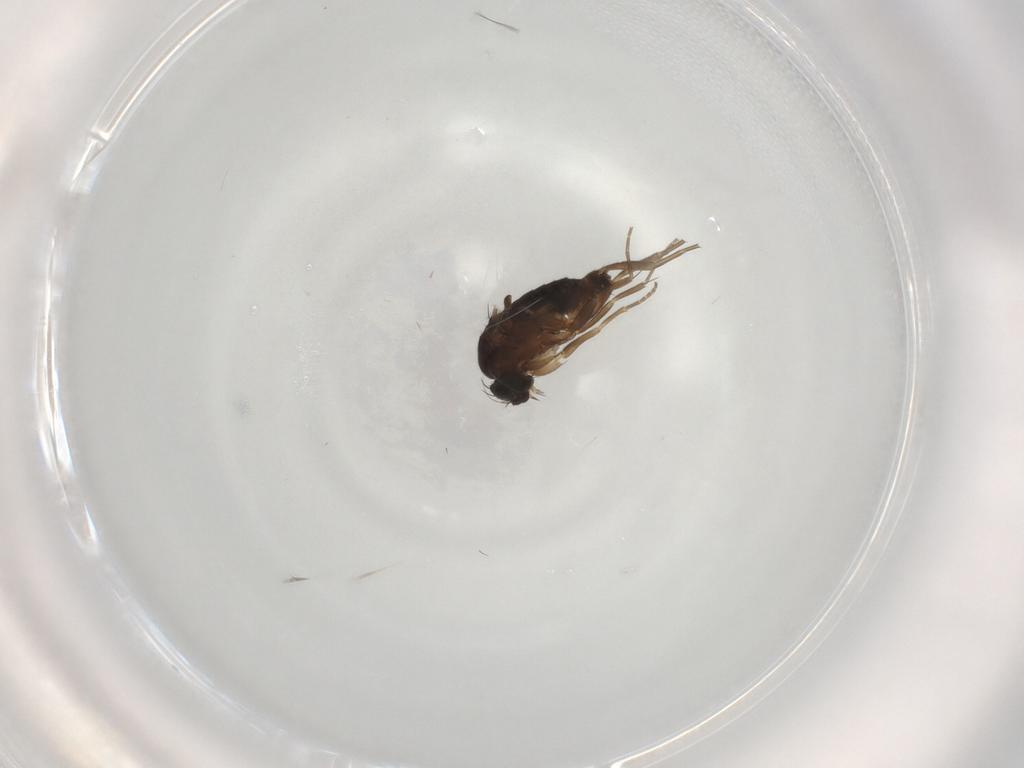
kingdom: Animalia
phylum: Arthropoda
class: Insecta
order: Diptera
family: Phoridae
